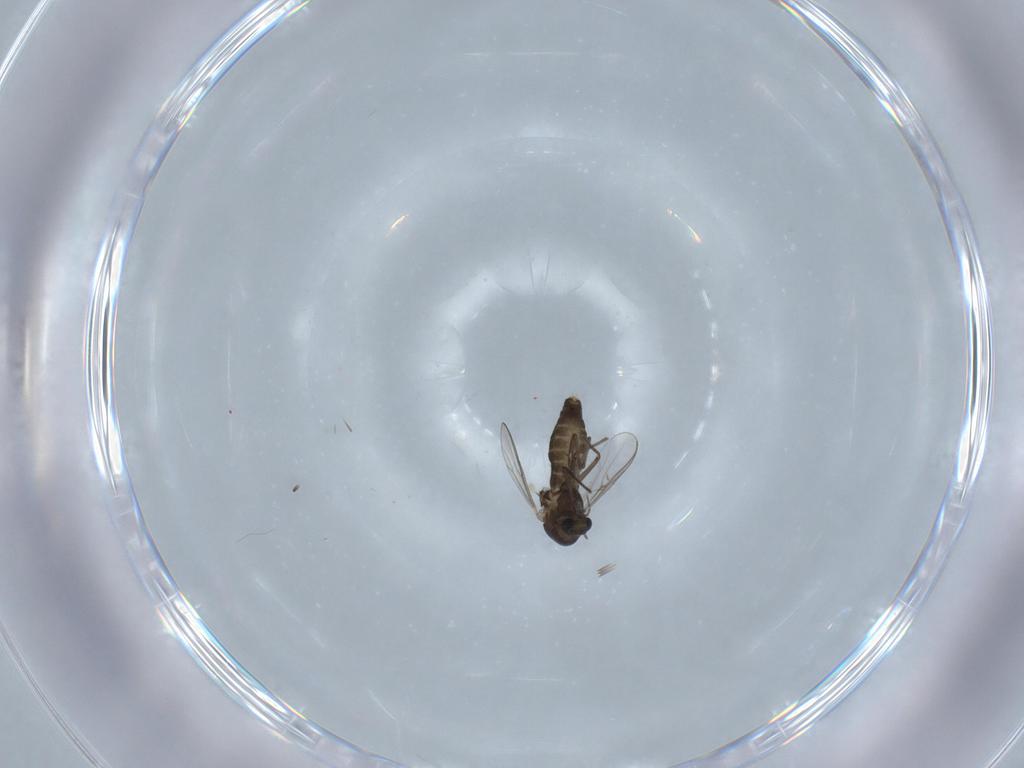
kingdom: Animalia
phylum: Arthropoda
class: Insecta
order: Diptera
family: Chironomidae
